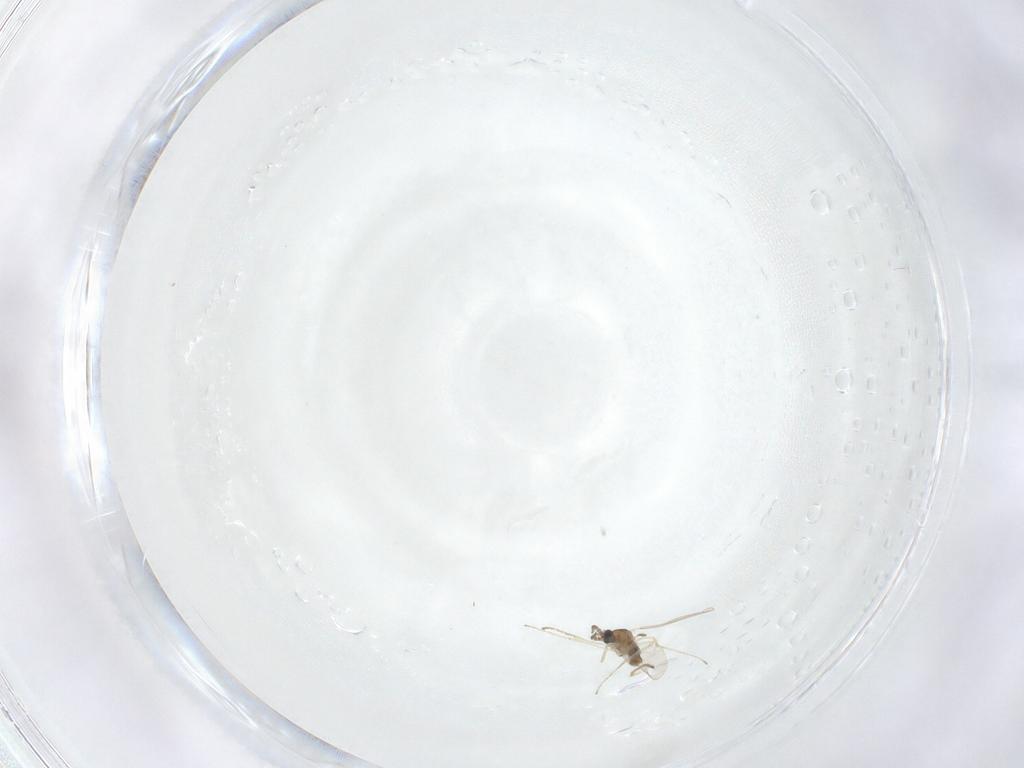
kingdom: Animalia
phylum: Arthropoda
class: Insecta
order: Diptera
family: Cecidomyiidae
